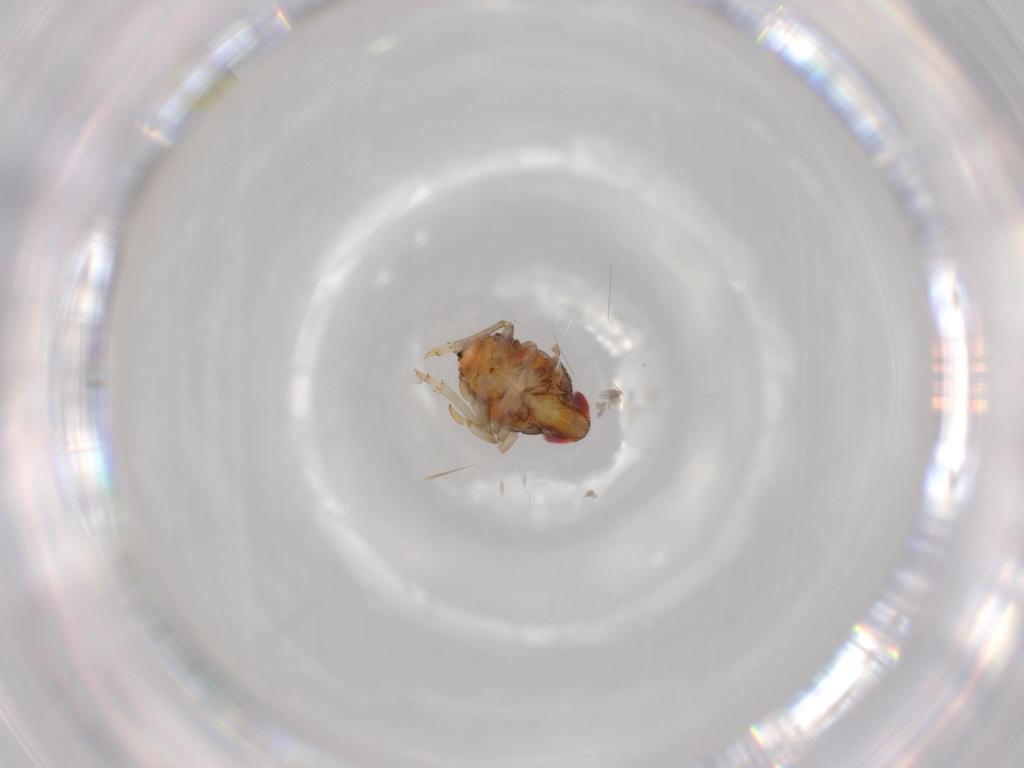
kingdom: Animalia
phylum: Arthropoda
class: Insecta
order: Hemiptera
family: Issidae
